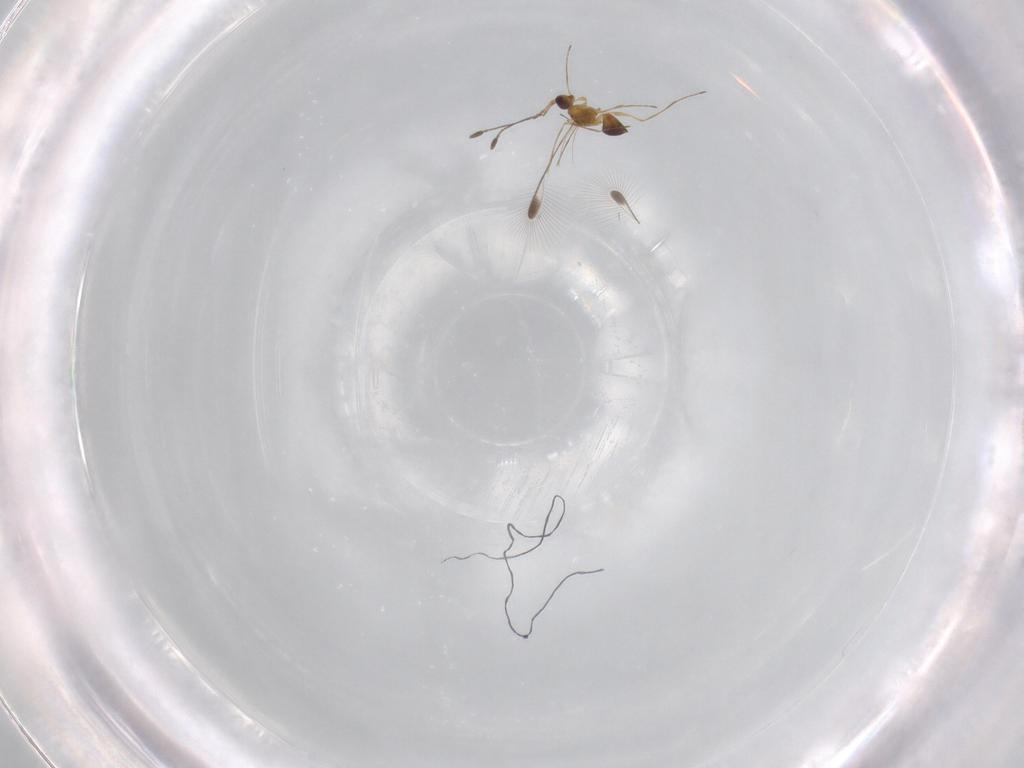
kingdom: Animalia
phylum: Arthropoda
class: Insecta
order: Hymenoptera
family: Mymaridae
